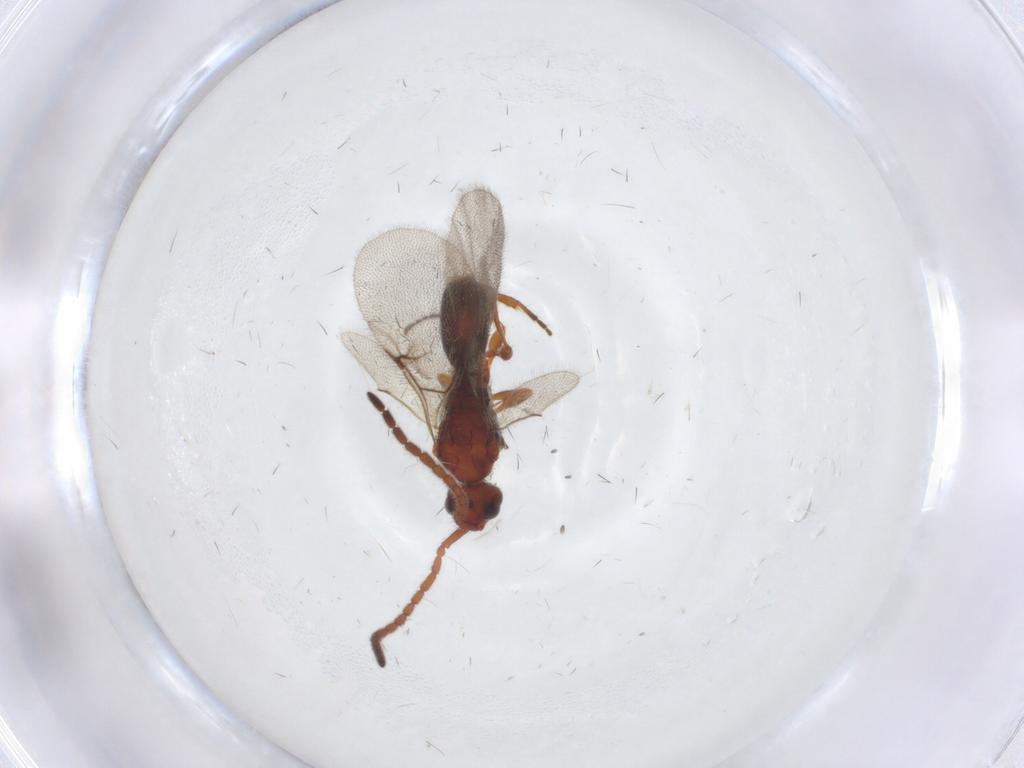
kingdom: Animalia
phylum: Arthropoda
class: Insecta
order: Hymenoptera
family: Diapriidae
